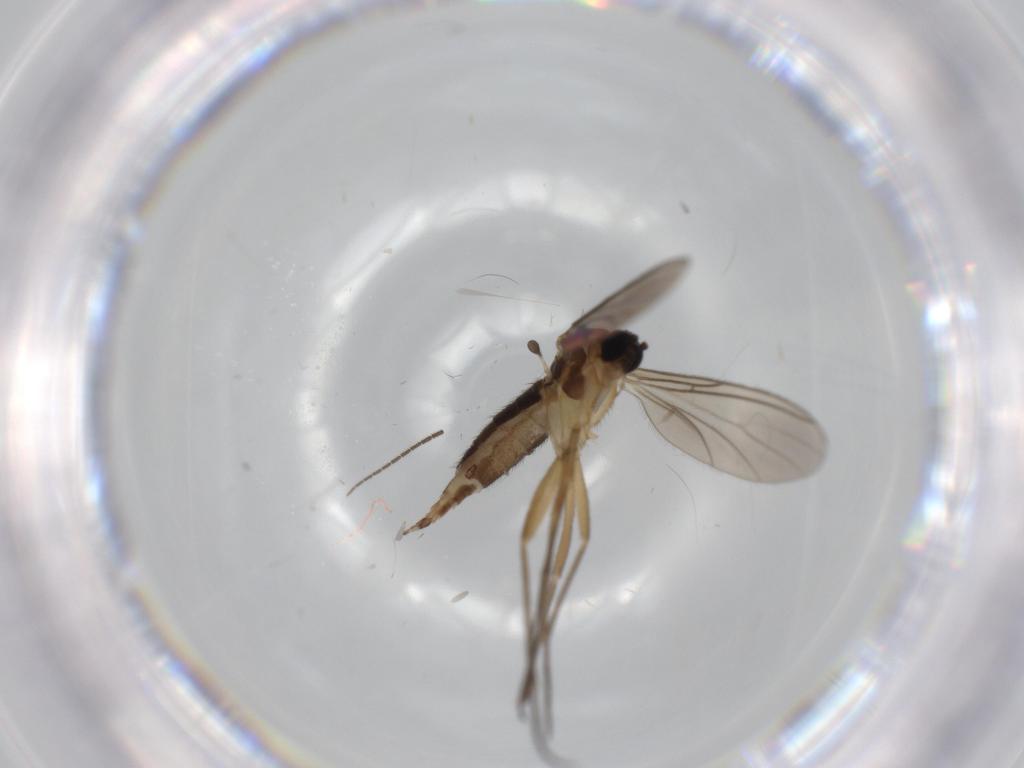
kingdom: Animalia
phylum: Arthropoda
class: Insecta
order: Diptera
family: Sciaridae
